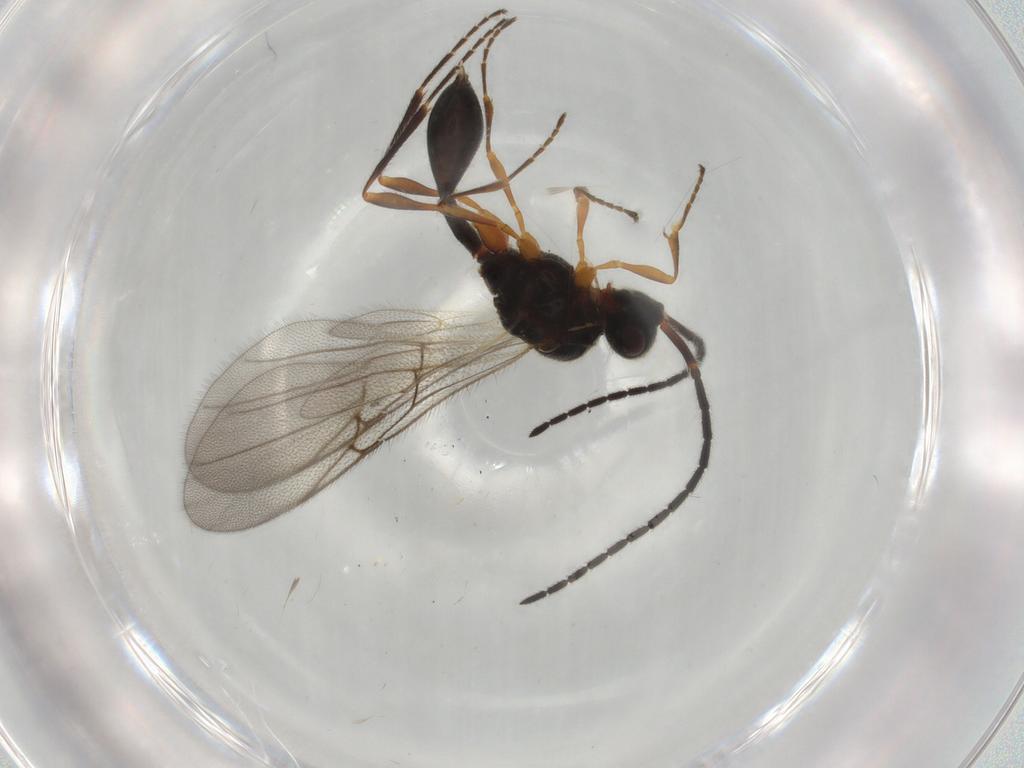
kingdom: Animalia
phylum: Arthropoda
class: Insecta
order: Hymenoptera
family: Diapriidae
